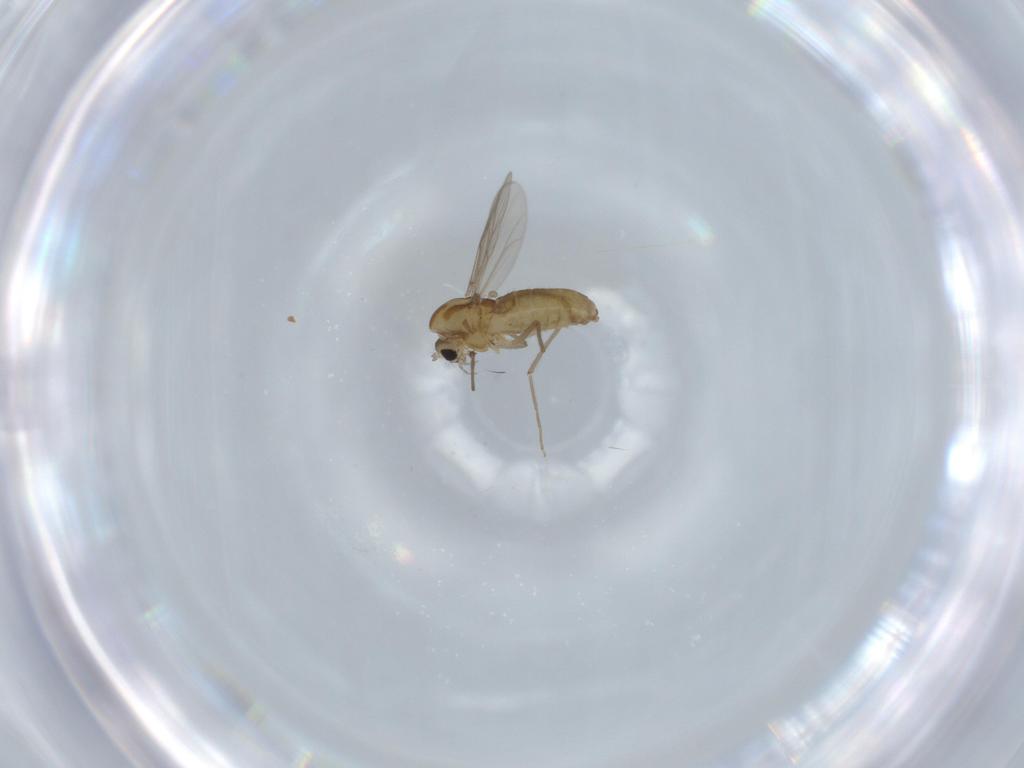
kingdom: Animalia
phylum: Arthropoda
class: Insecta
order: Diptera
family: Chironomidae
